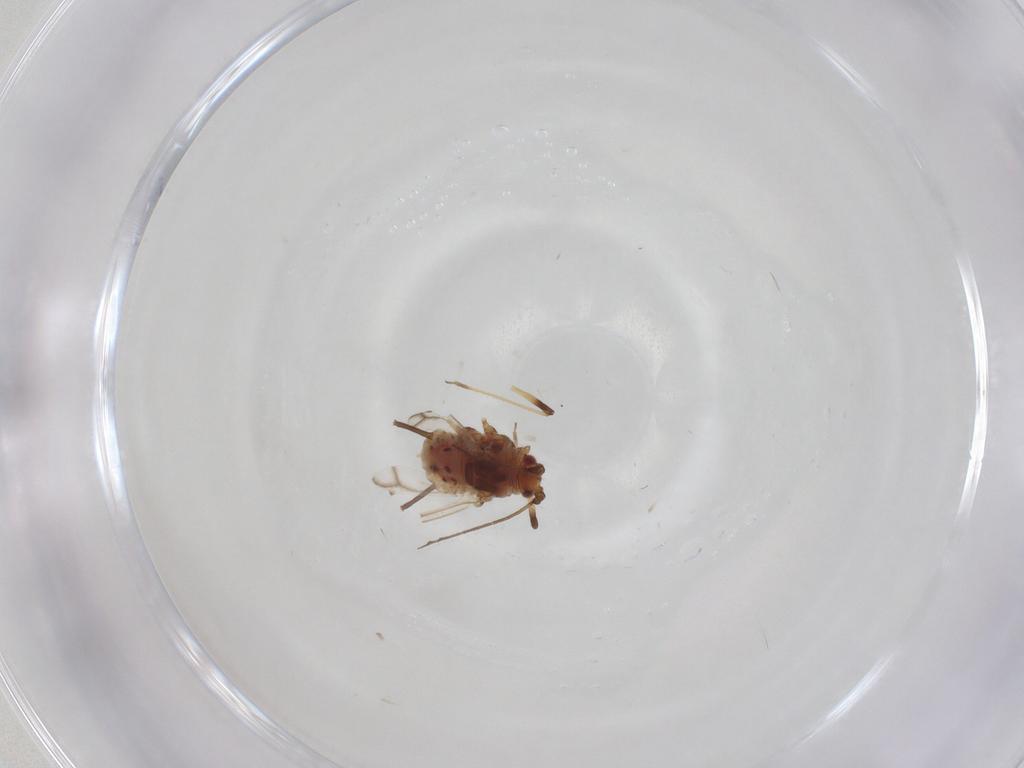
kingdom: Animalia
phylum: Arthropoda
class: Insecta
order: Hemiptera
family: Aphididae
